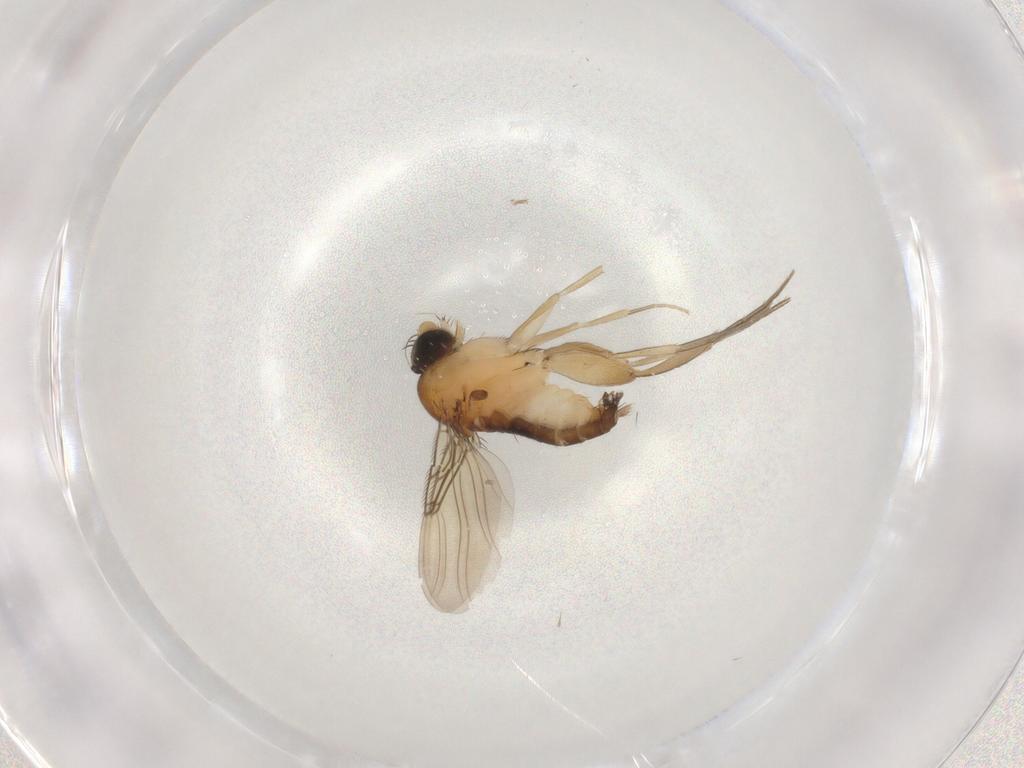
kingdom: Animalia
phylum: Arthropoda
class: Insecta
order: Diptera
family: Phoridae
